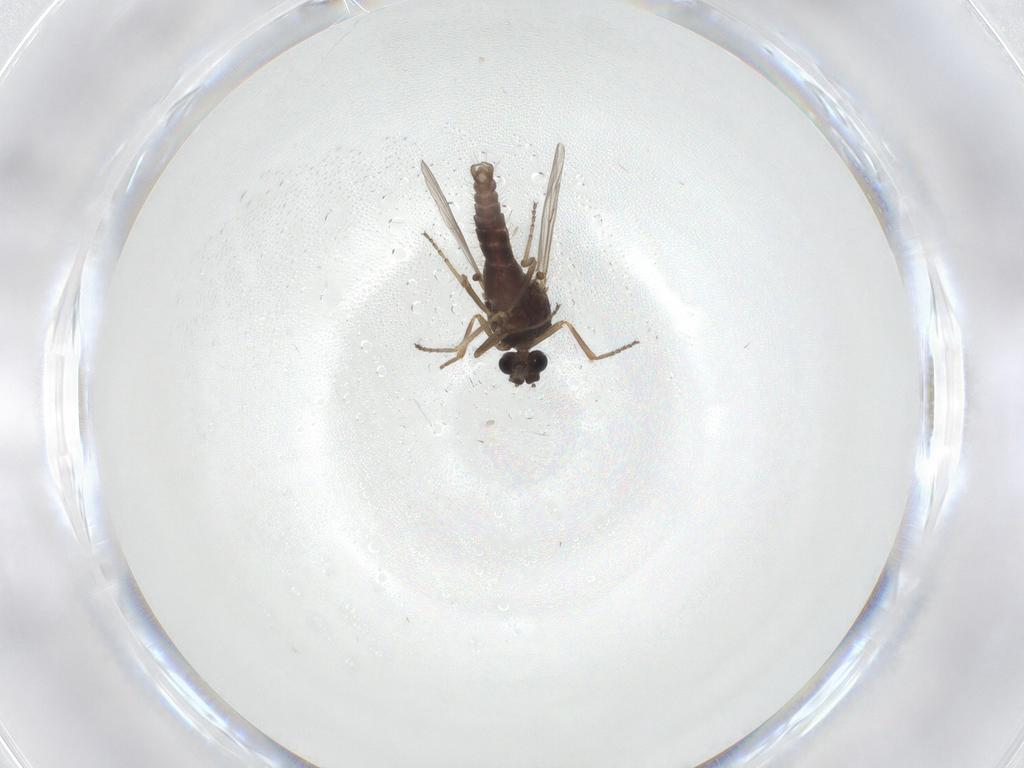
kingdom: Animalia
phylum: Arthropoda
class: Insecta
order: Diptera
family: Ceratopogonidae
